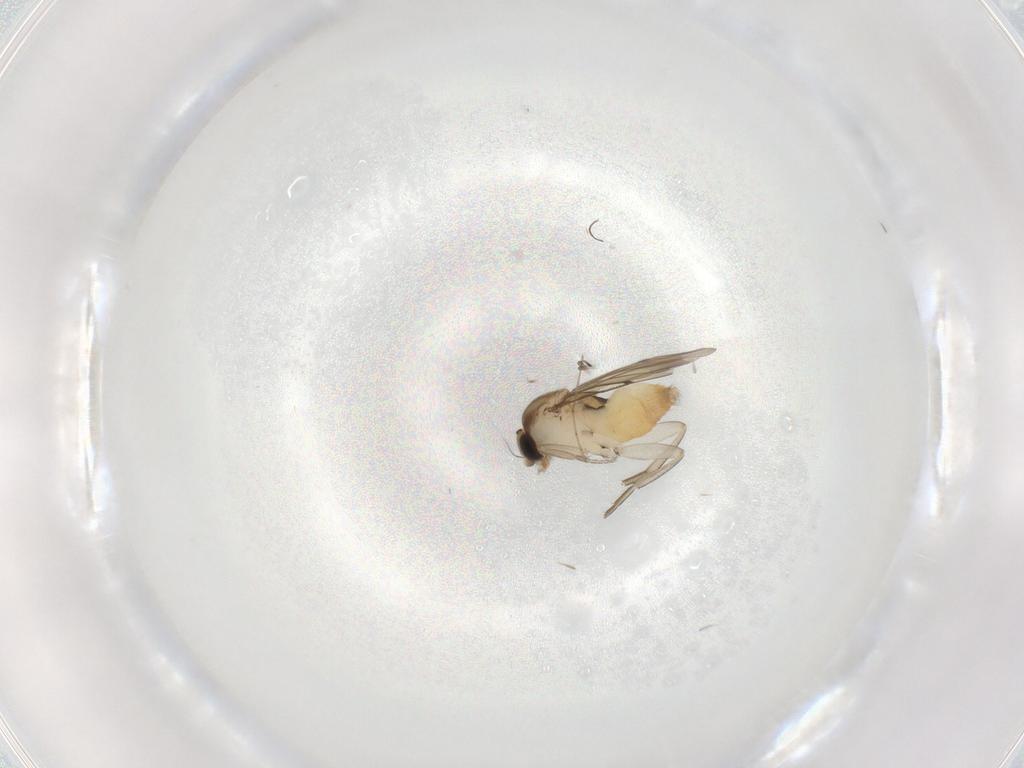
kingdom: Animalia
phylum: Arthropoda
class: Insecta
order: Diptera
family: Cecidomyiidae
